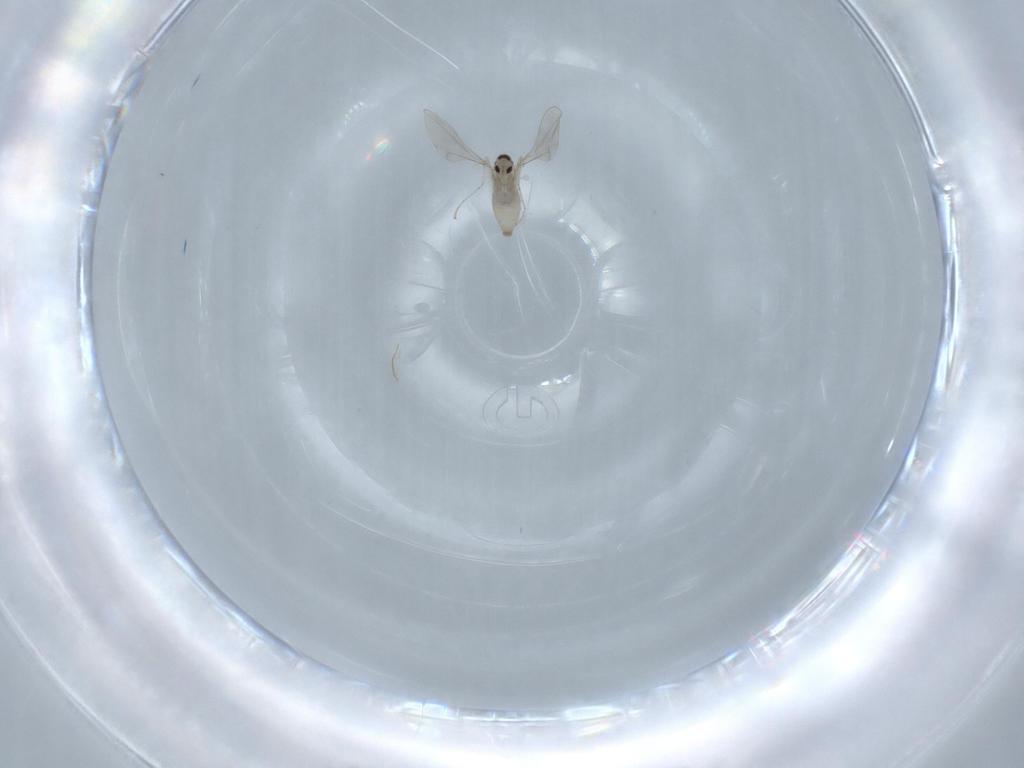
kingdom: Animalia
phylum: Arthropoda
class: Insecta
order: Diptera
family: Cecidomyiidae
